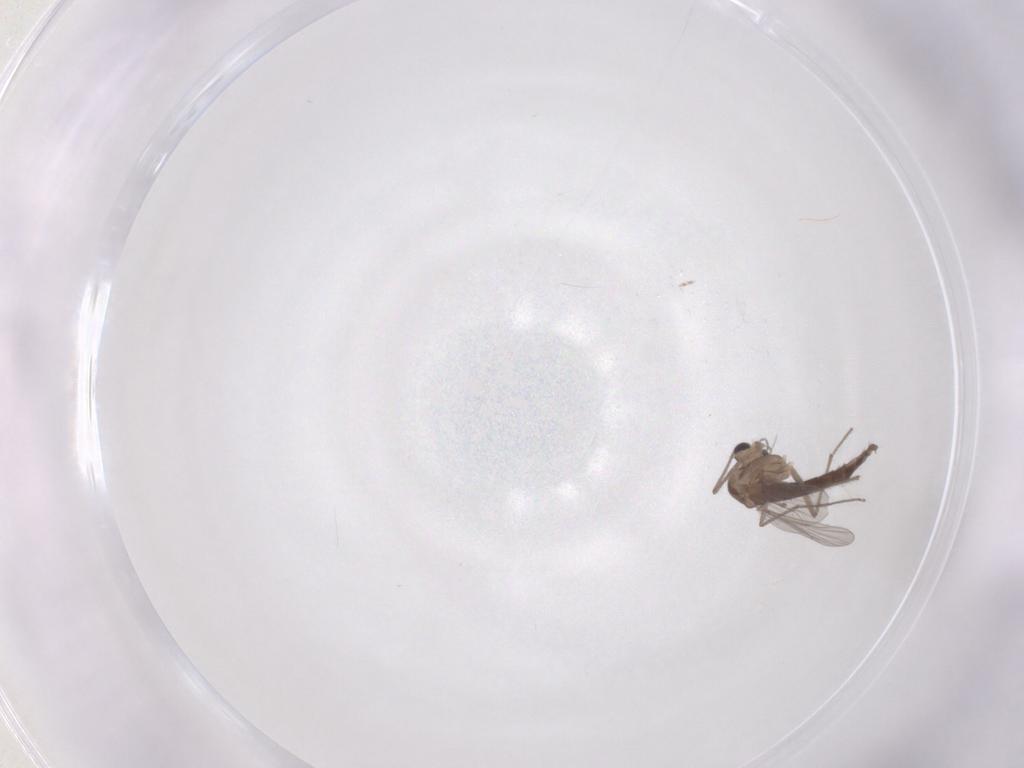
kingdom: Animalia
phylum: Arthropoda
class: Insecta
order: Diptera
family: Chironomidae
